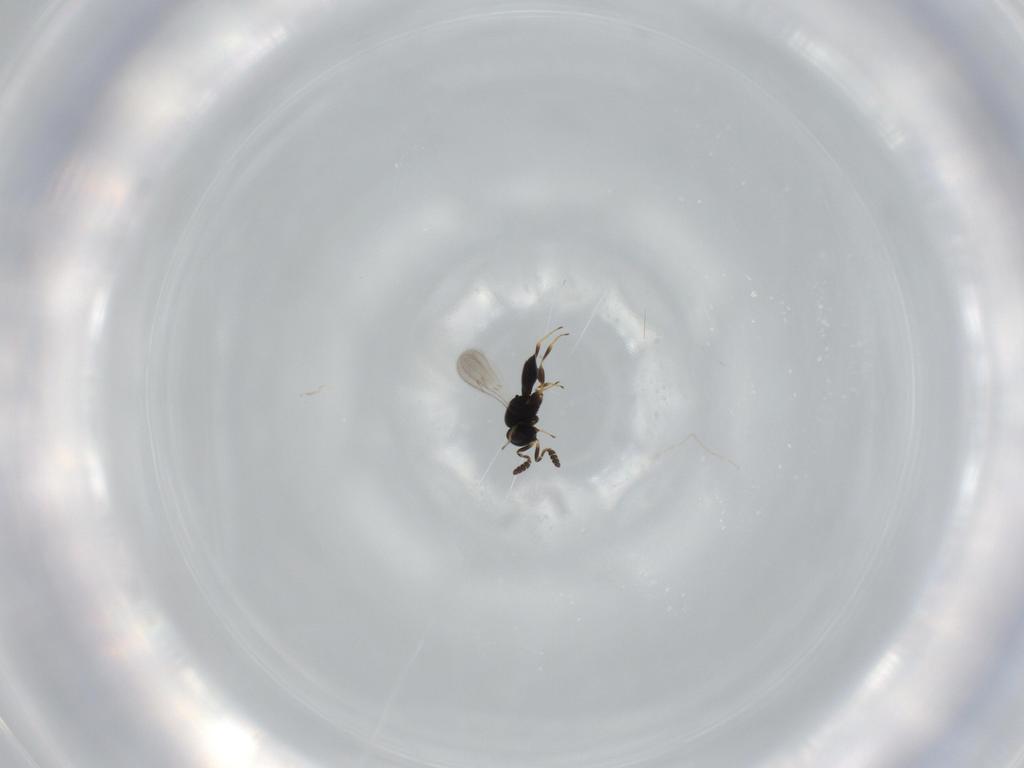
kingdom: Animalia
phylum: Arthropoda
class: Insecta
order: Hymenoptera
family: Scelionidae
